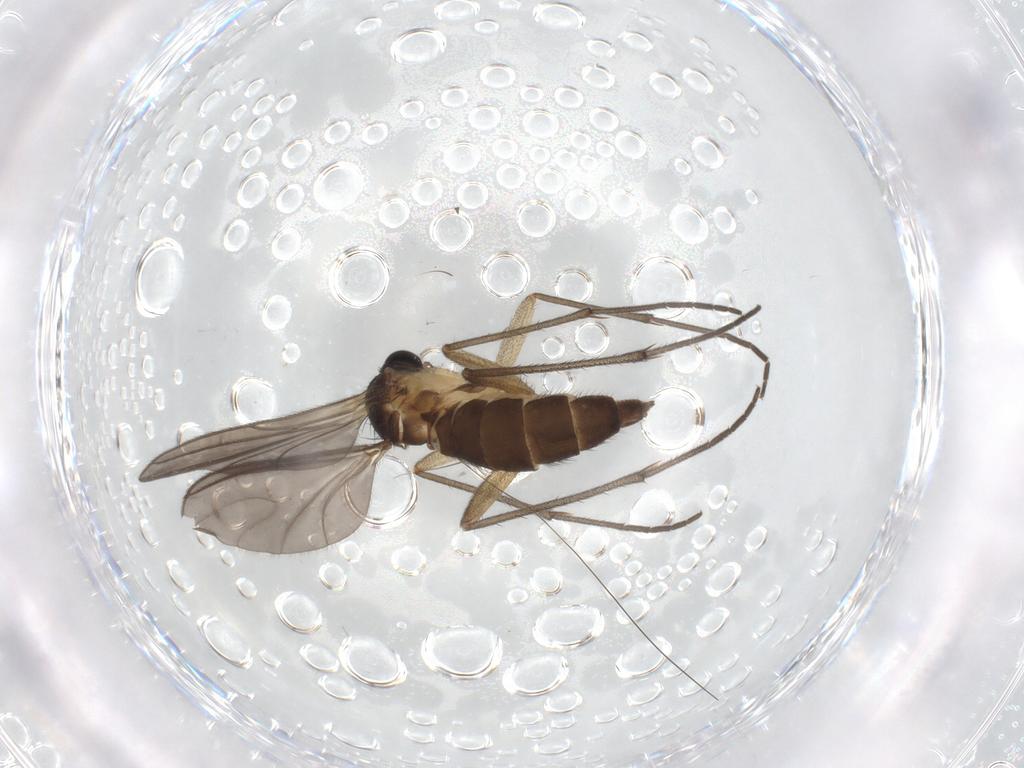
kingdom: Animalia
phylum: Arthropoda
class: Insecta
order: Diptera
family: Sciaridae
